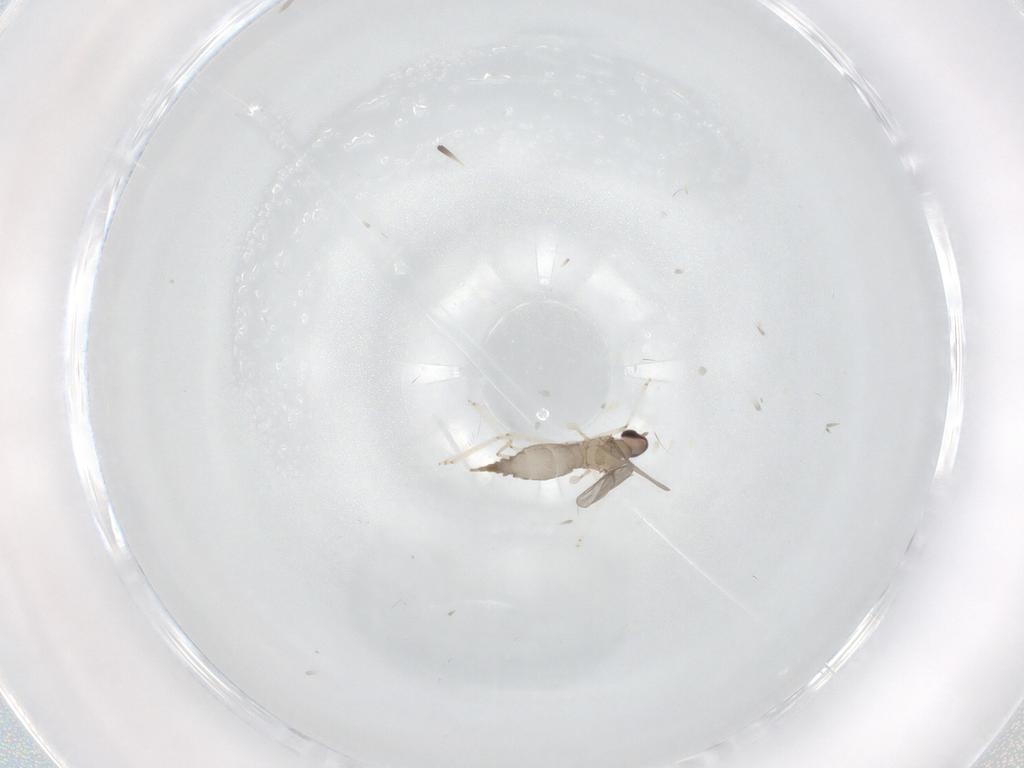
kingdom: Animalia
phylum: Arthropoda
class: Insecta
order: Diptera
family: Cecidomyiidae
